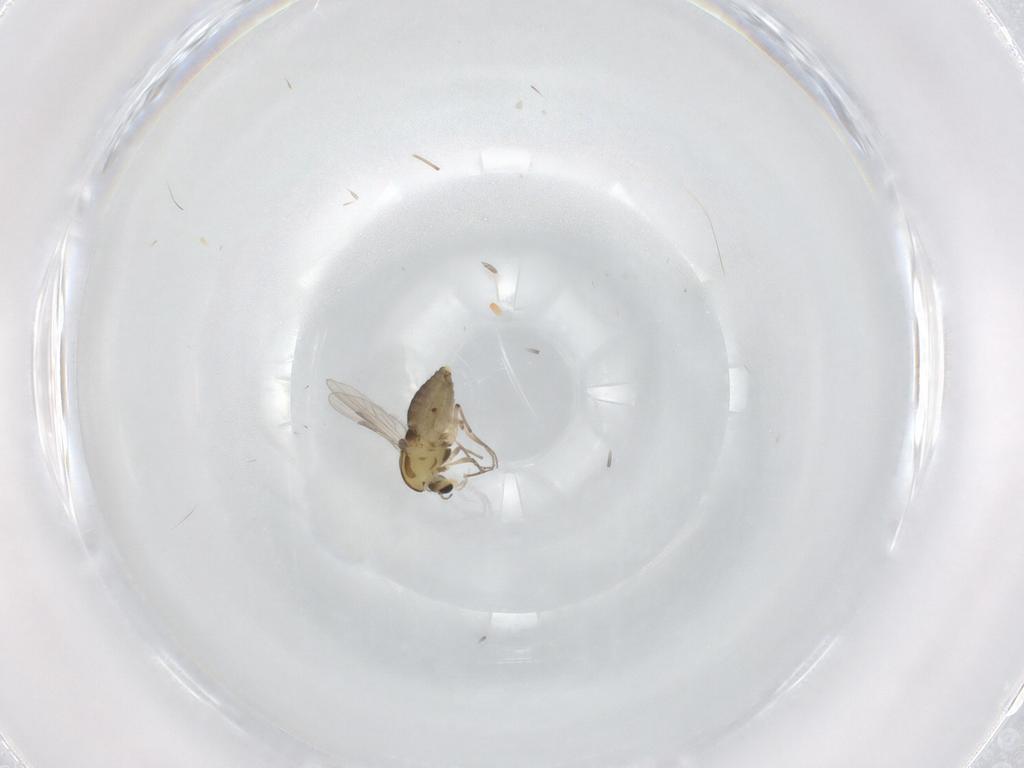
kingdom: Animalia
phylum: Arthropoda
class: Insecta
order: Diptera
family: Chironomidae
